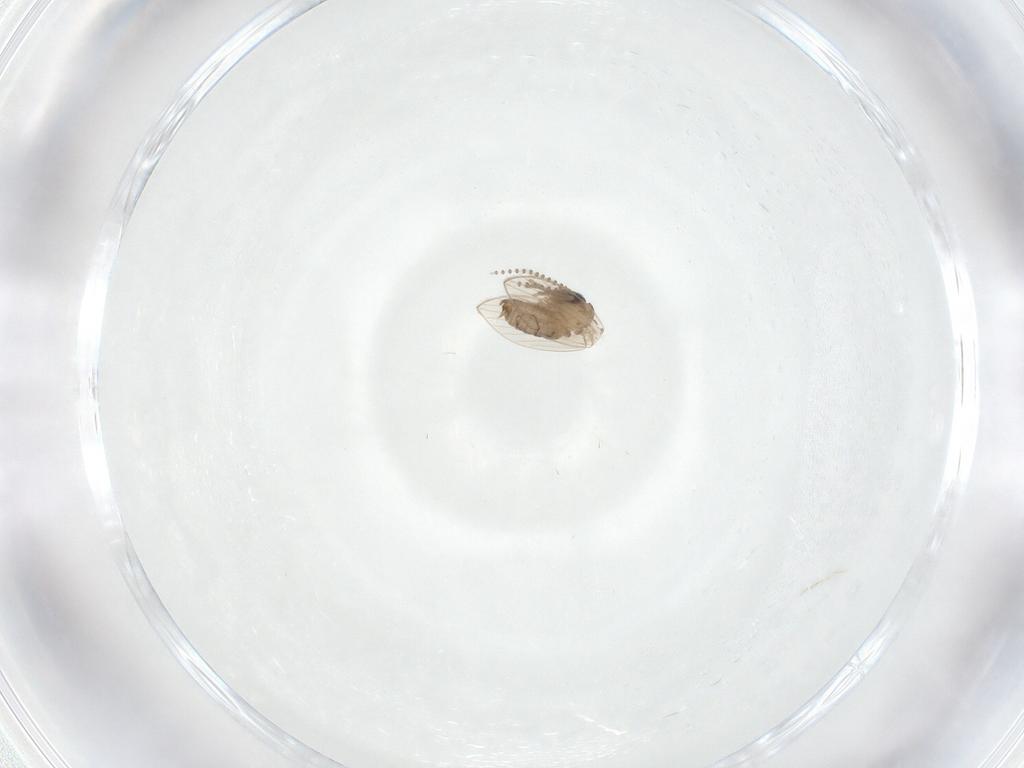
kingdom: Animalia
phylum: Arthropoda
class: Insecta
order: Diptera
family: Psychodidae
